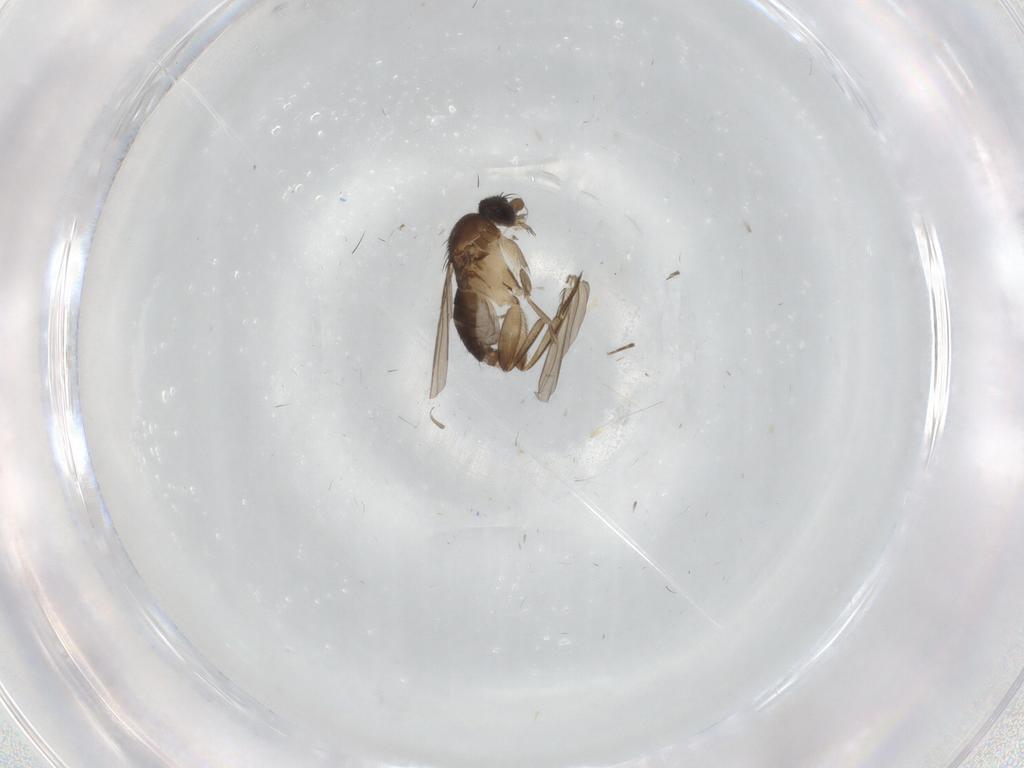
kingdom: Animalia
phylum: Arthropoda
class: Insecta
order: Diptera
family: Phoridae
